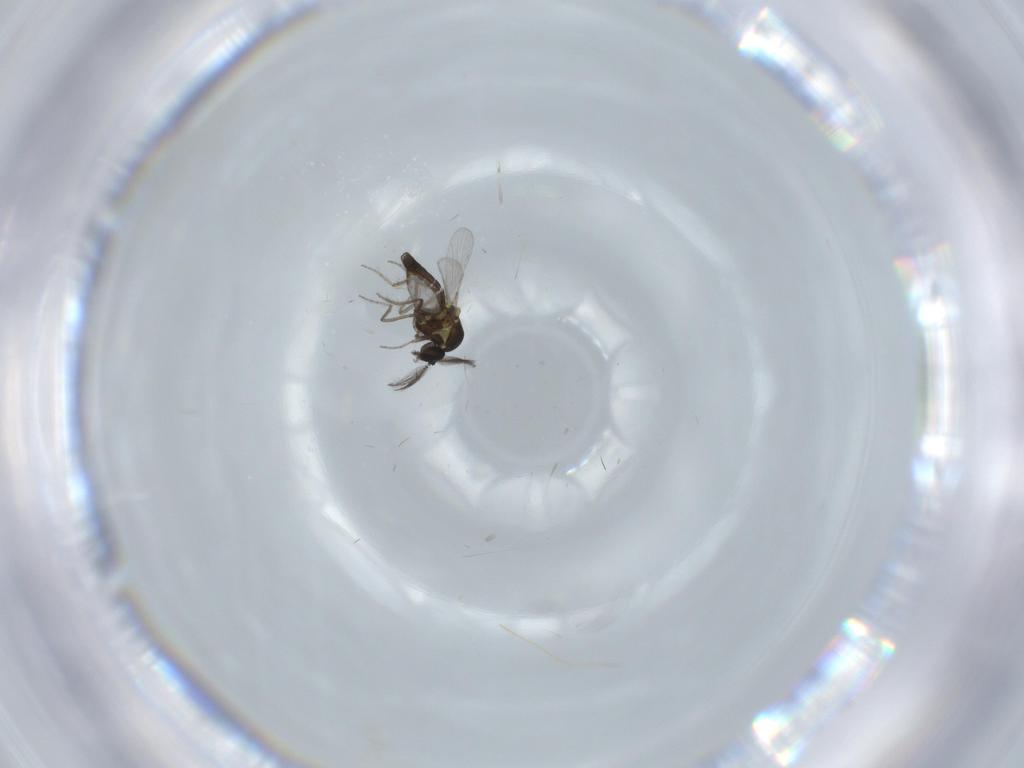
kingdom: Animalia
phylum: Arthropoda
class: Insecta
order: Diptera
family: Ceratopogonidae
